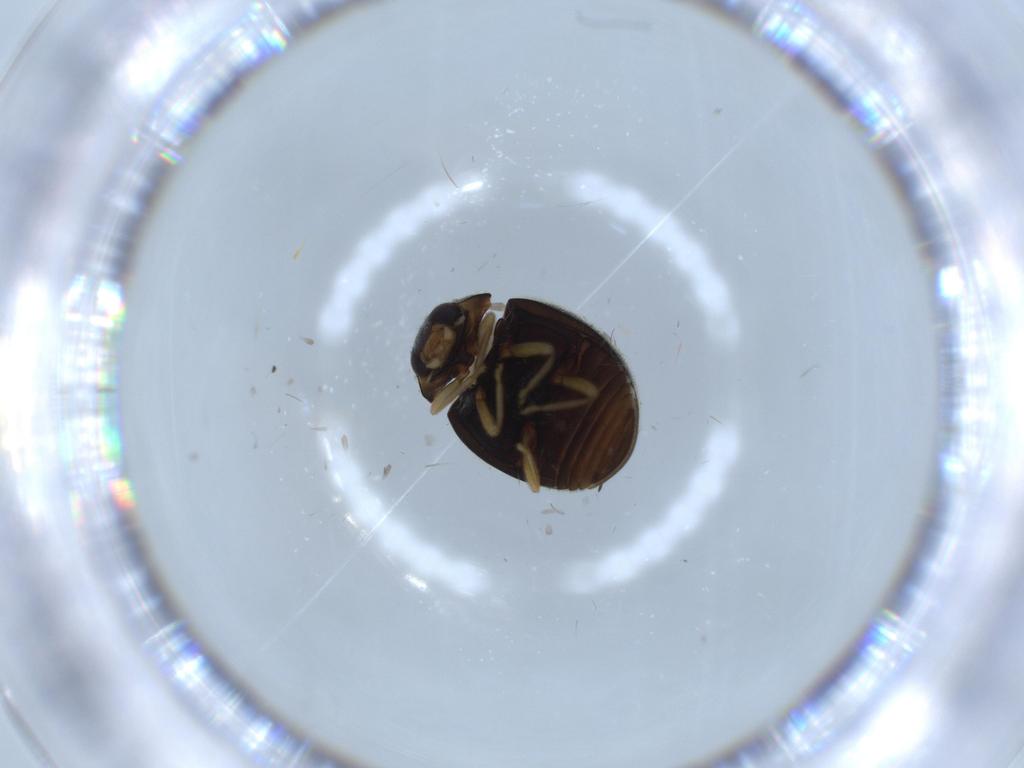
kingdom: Animalia
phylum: Arthropoda
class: Insecta
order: Coleoptera
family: Coccinellidae
